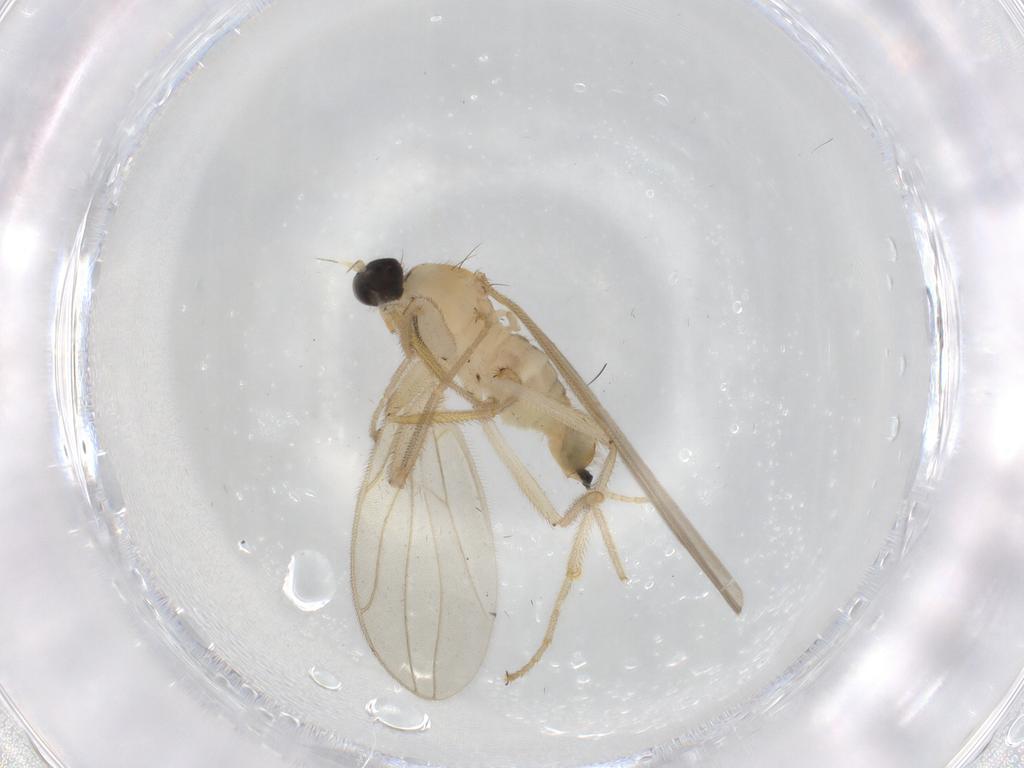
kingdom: Animalia
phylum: Arthropoda
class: Insecta
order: Diptera
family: Hybotidae
